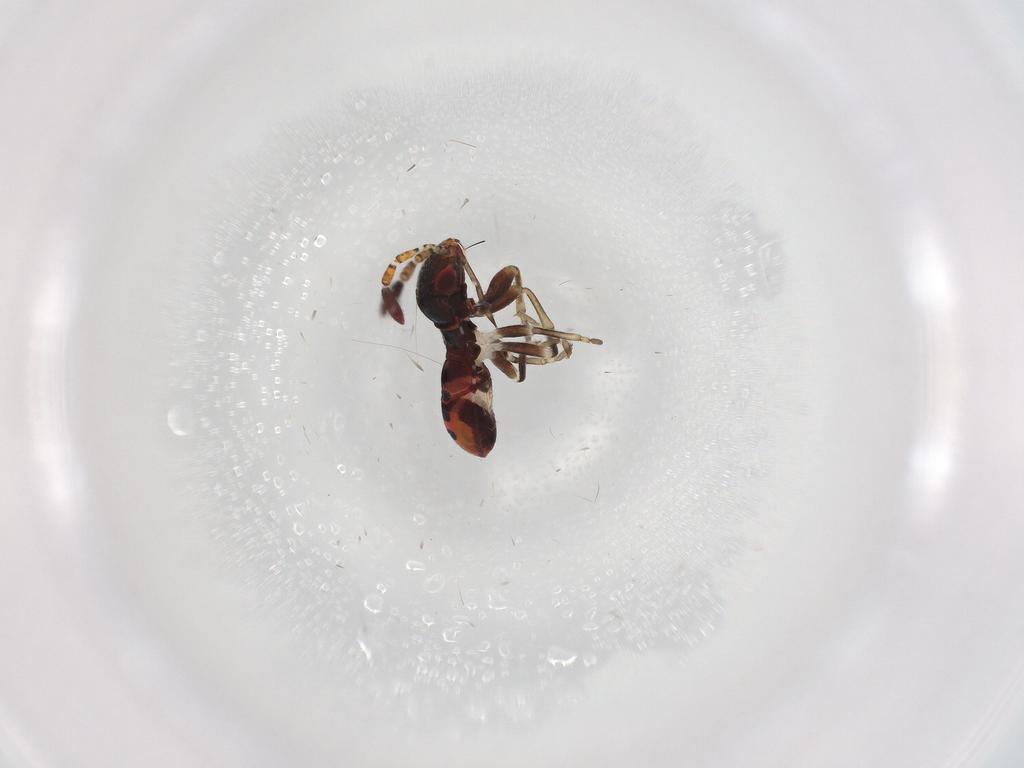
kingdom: Animalia
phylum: Arthropoda
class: Insecta
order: Hemiptera
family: Rhyparochromidae
